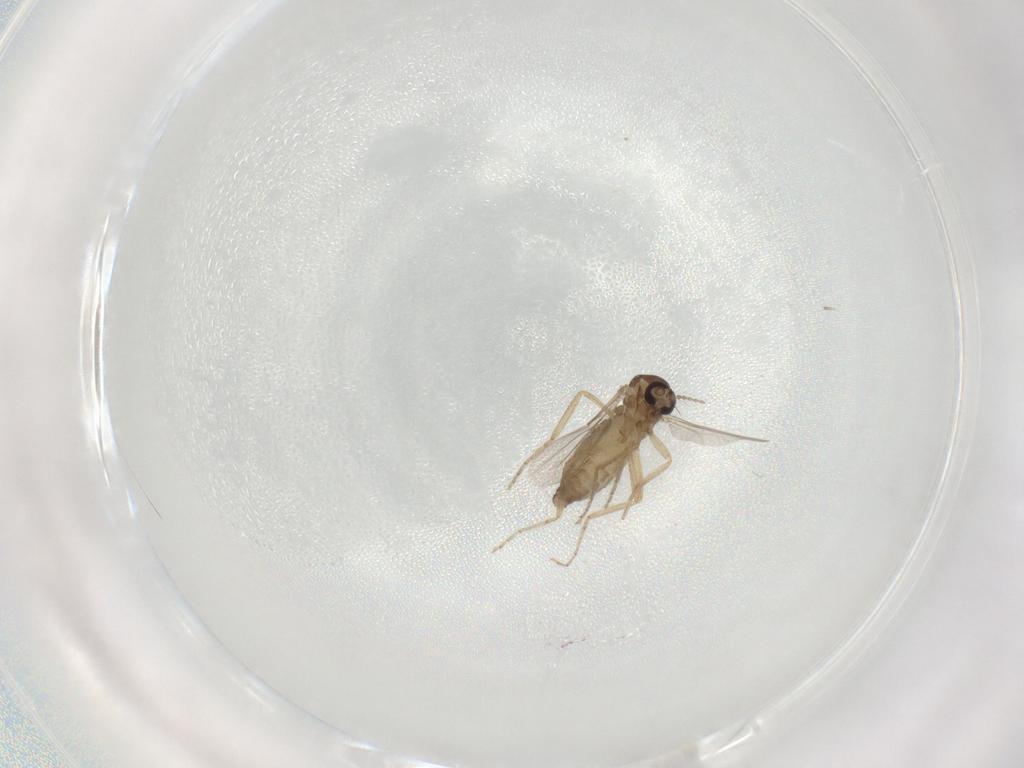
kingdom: Animalia
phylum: Arthropoda
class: Insecta
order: Diptera
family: Ceratopogonidae
